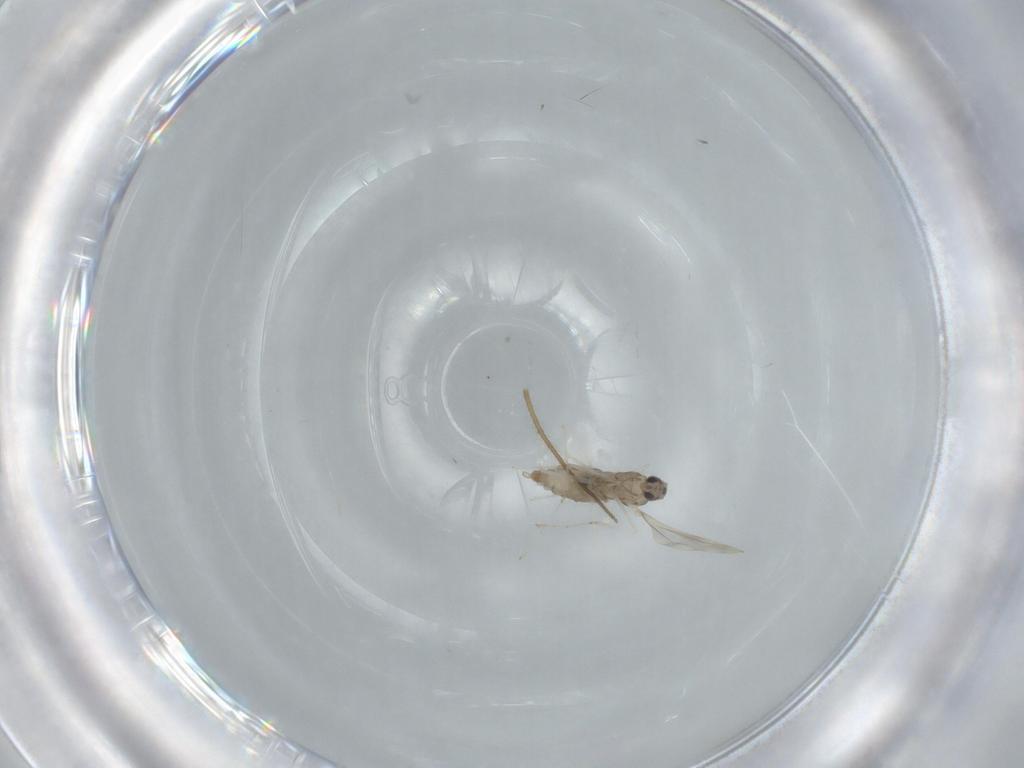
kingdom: Animalia
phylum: Arthropoda
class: Insecta
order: Diptera
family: Cecidomyiidae
